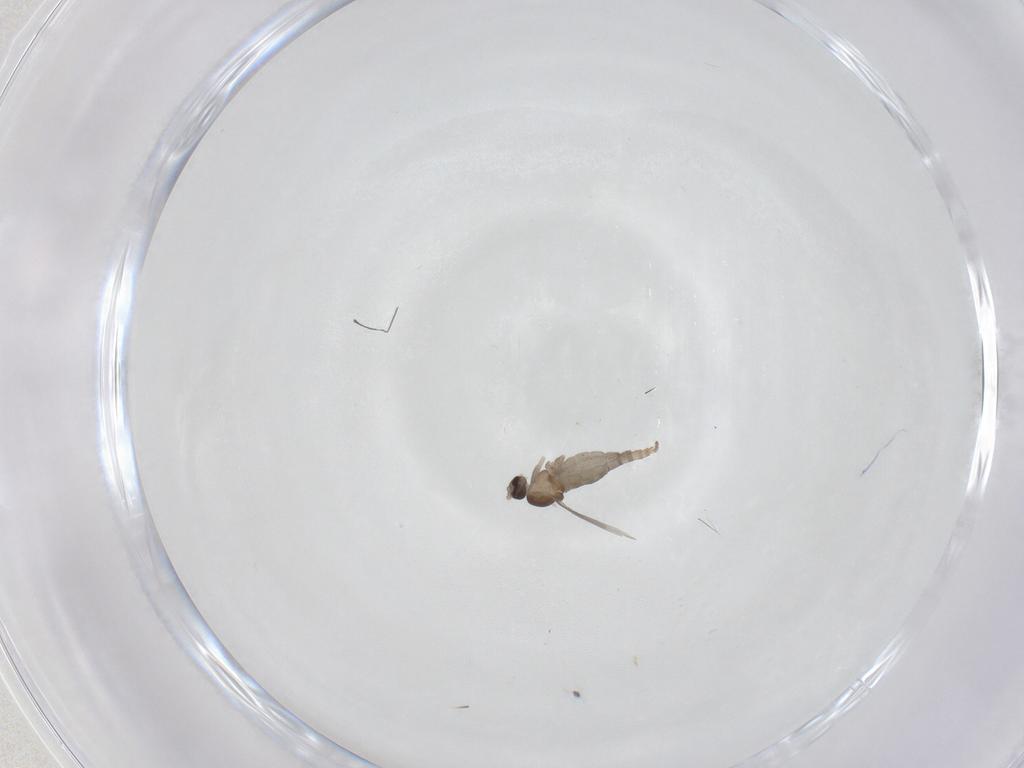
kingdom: Animalia
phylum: Arthropoda
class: Insecta
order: Diptera
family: Cecidomyiidae
